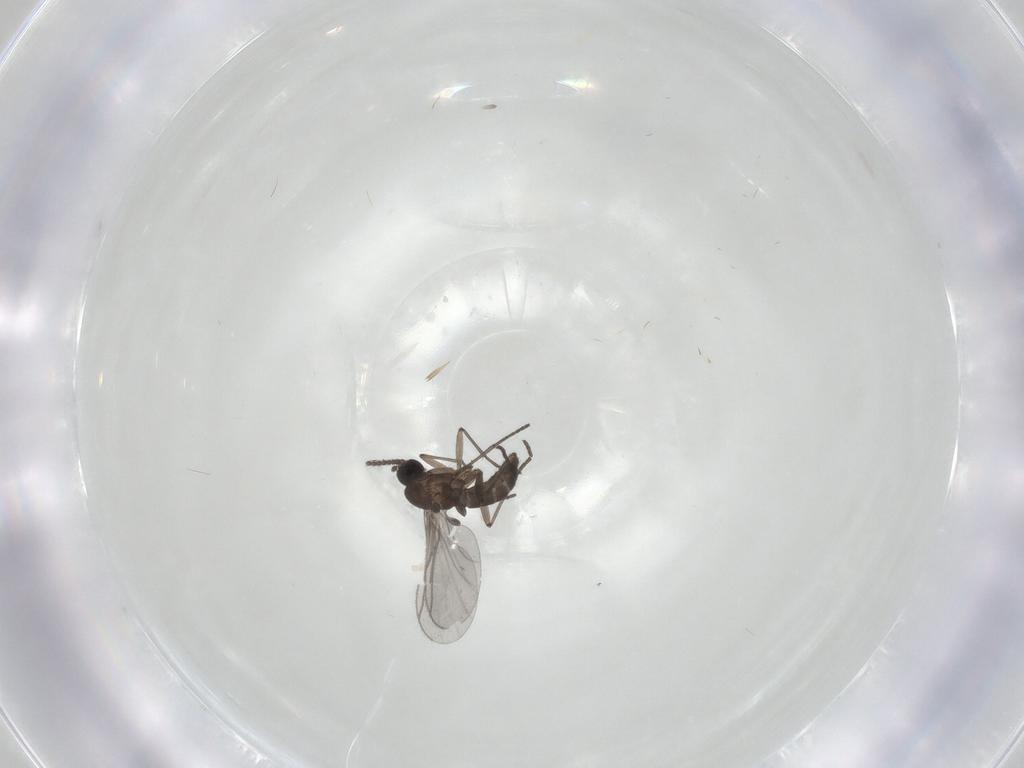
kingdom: Animalia
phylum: Arthropoda
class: Insecta
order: Diptera
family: Sciaridae
